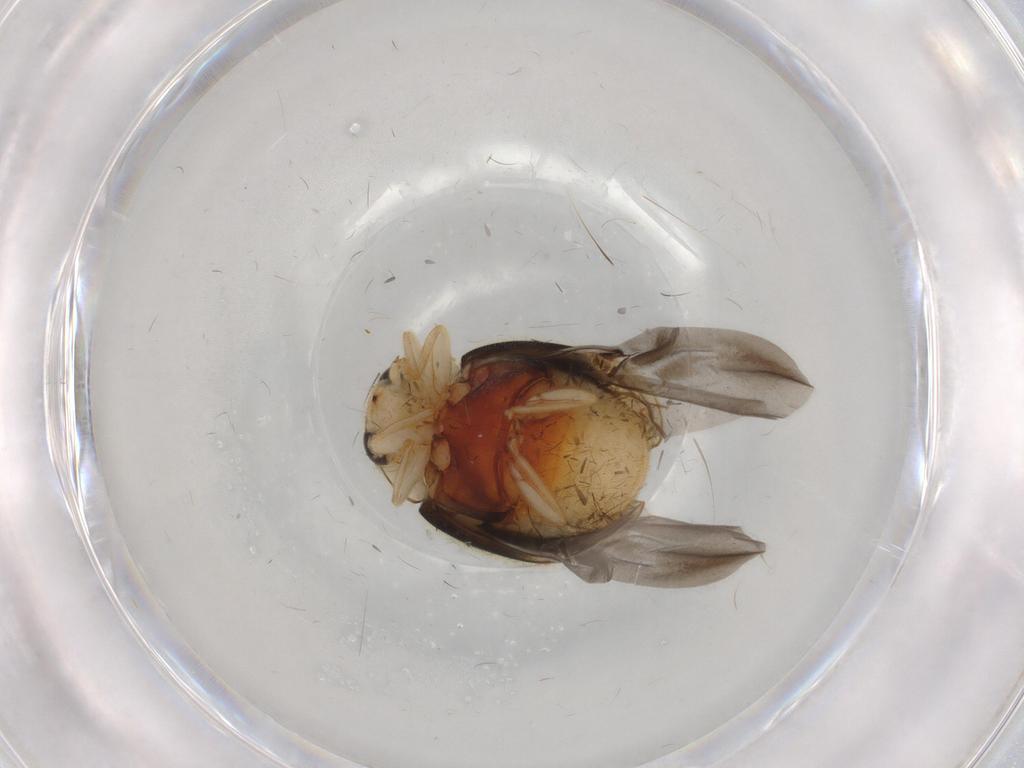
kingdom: Animalia
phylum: Arthropoda
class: Insecta
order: Coleoptera
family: Coccinellidae
